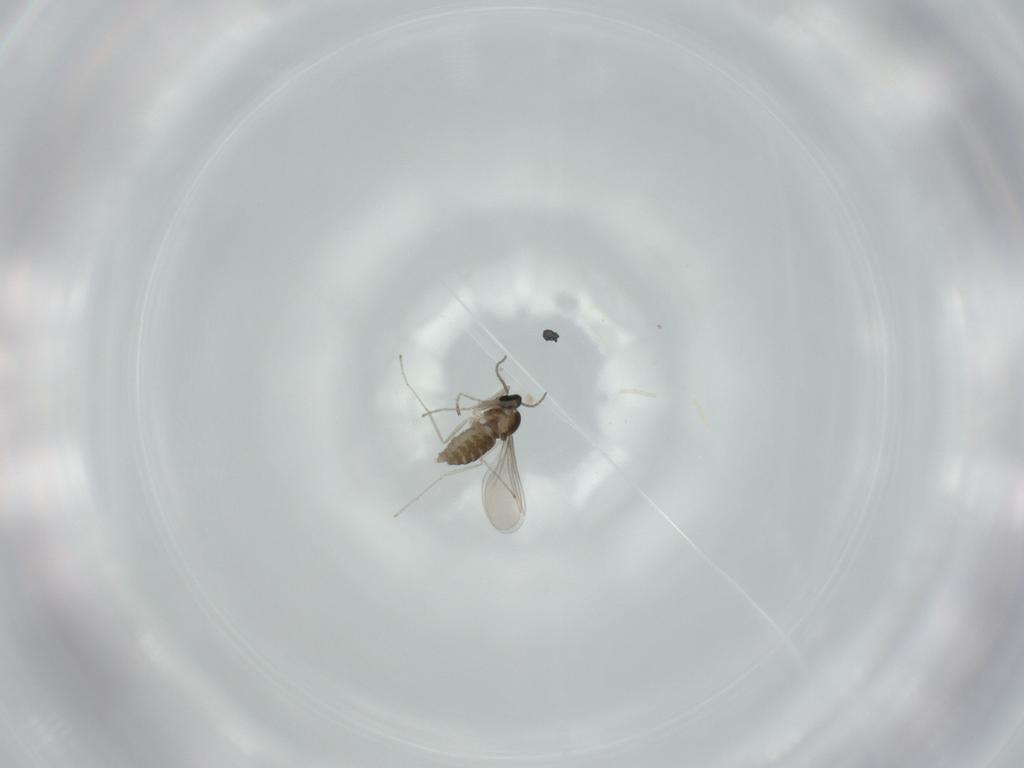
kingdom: Animalia
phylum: Arthropoda
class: Insecta
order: Diptera
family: Cecidomyiidae
